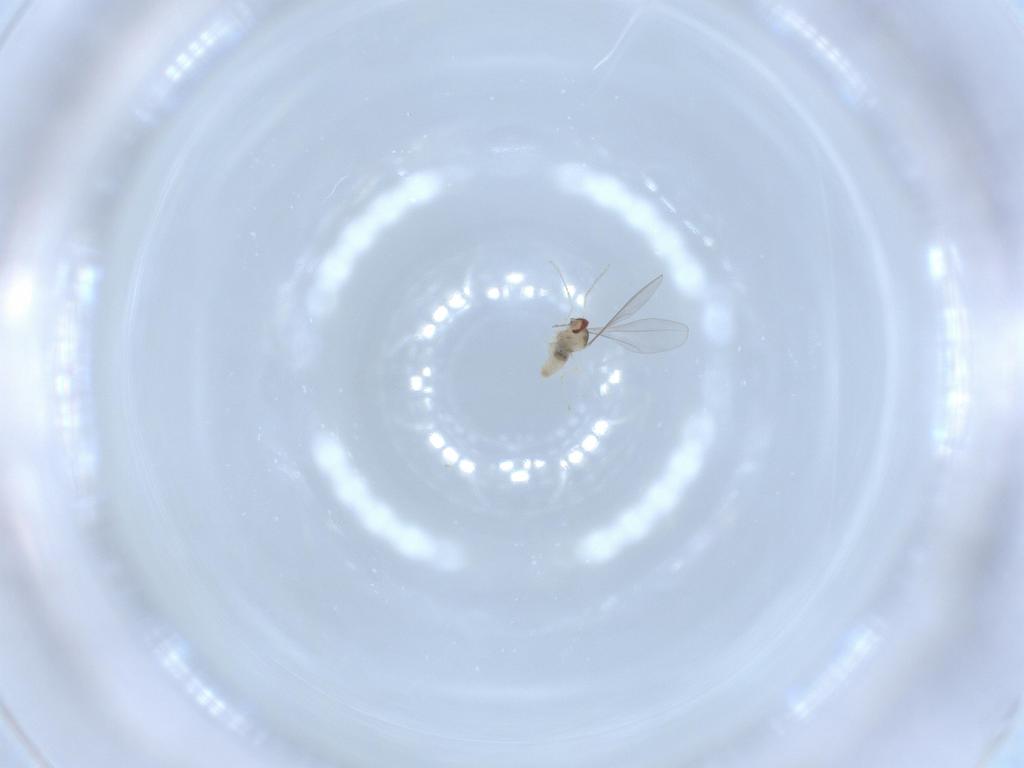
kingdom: Animalia
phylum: Arthropoda
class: Insecta
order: Diptera
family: Cecidomyiidae
